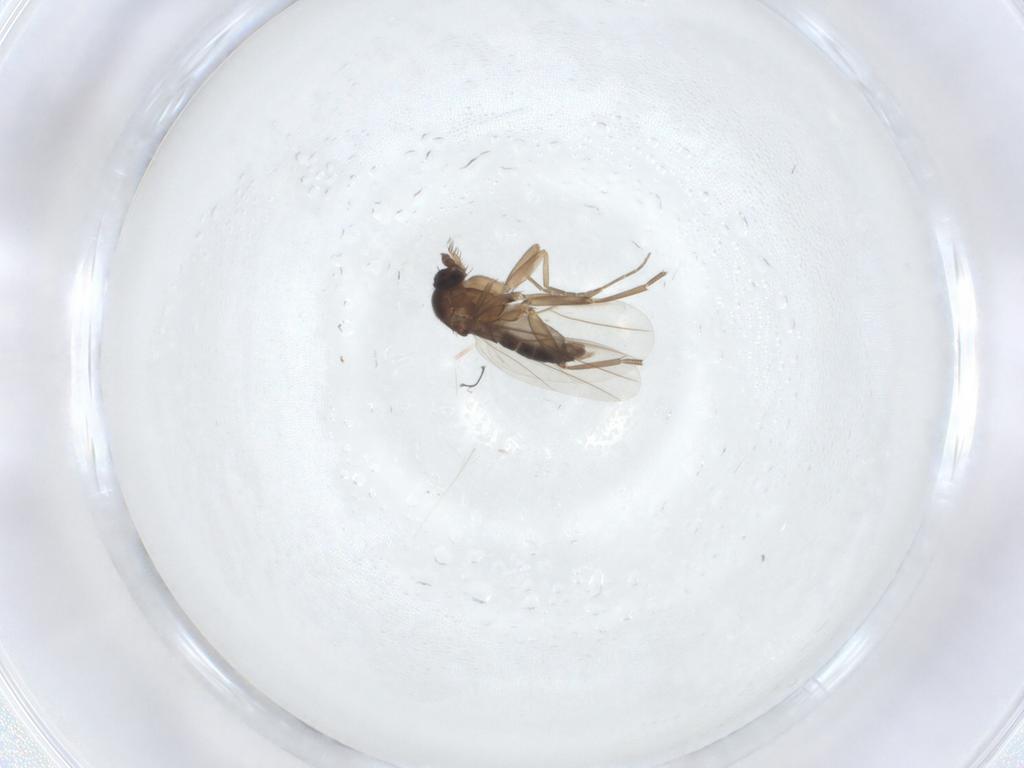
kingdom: Animalia
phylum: Arthropoda
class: Insecta
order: Diptera
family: Phoridae
